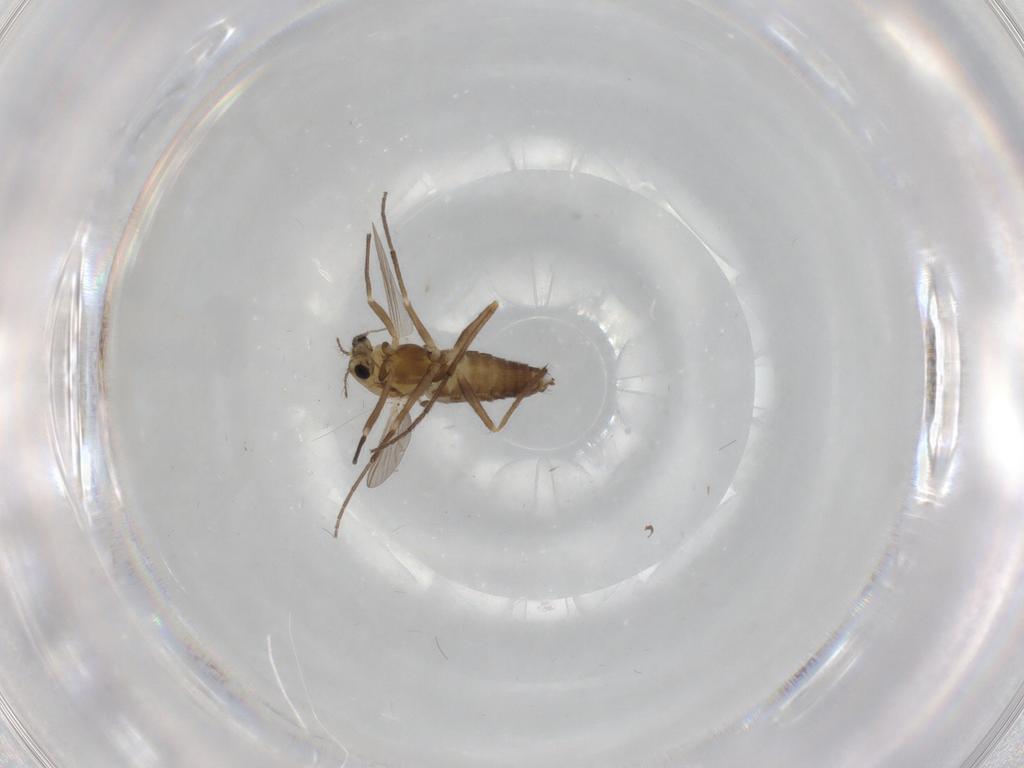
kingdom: Animalia
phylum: Arthropoda
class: Insecta
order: Diptera
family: Chironomidae
